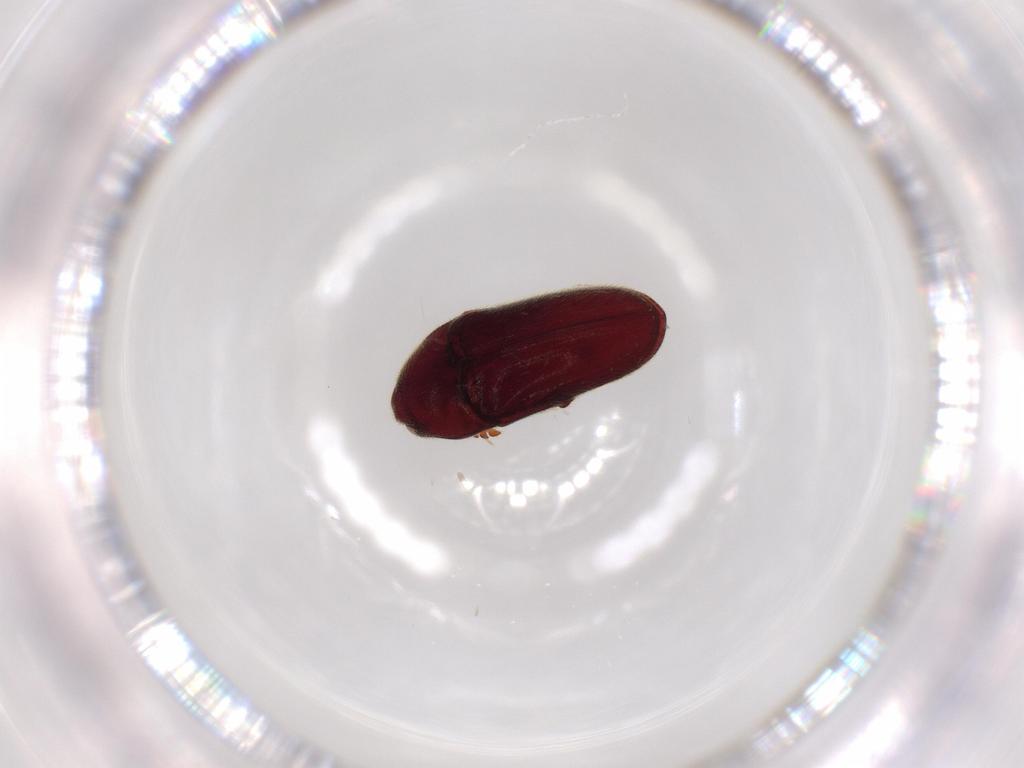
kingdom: Animalia
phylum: Arthropoda
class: Insecta
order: Coleoptera
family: Throscidae
